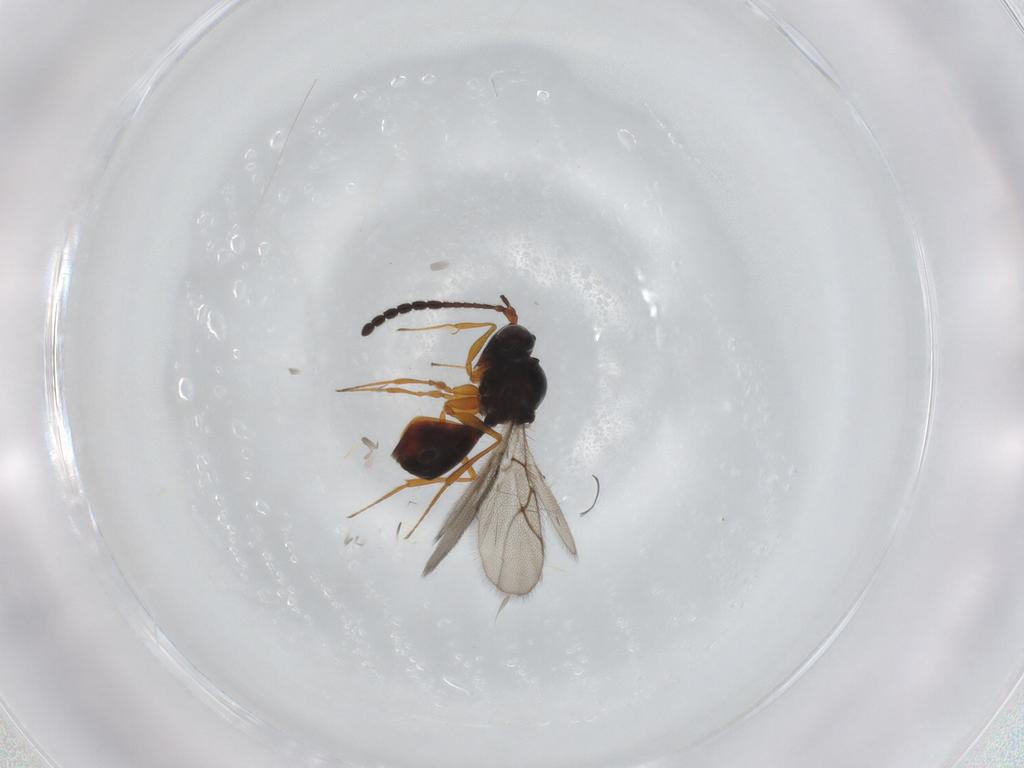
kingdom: Animalia
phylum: Arthropoda
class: Insecta
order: Hymenoptera
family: Figitidae
